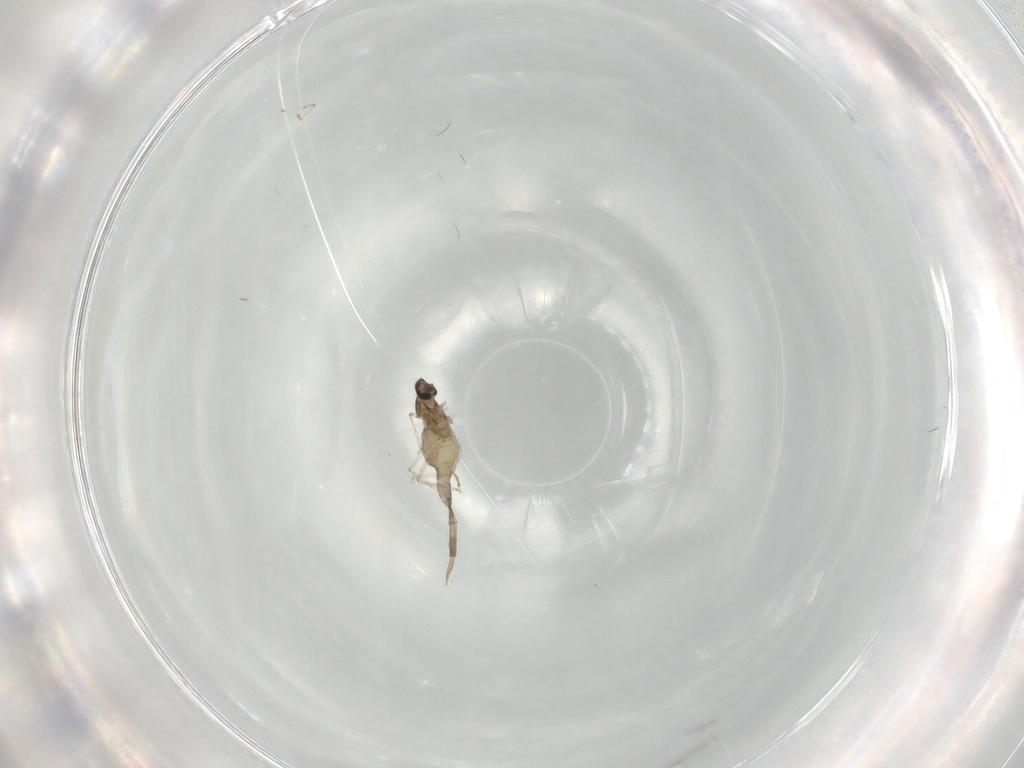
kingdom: Animalia
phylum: Arthropoda
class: Insecta
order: Diptera
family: Cecidomyiidae
